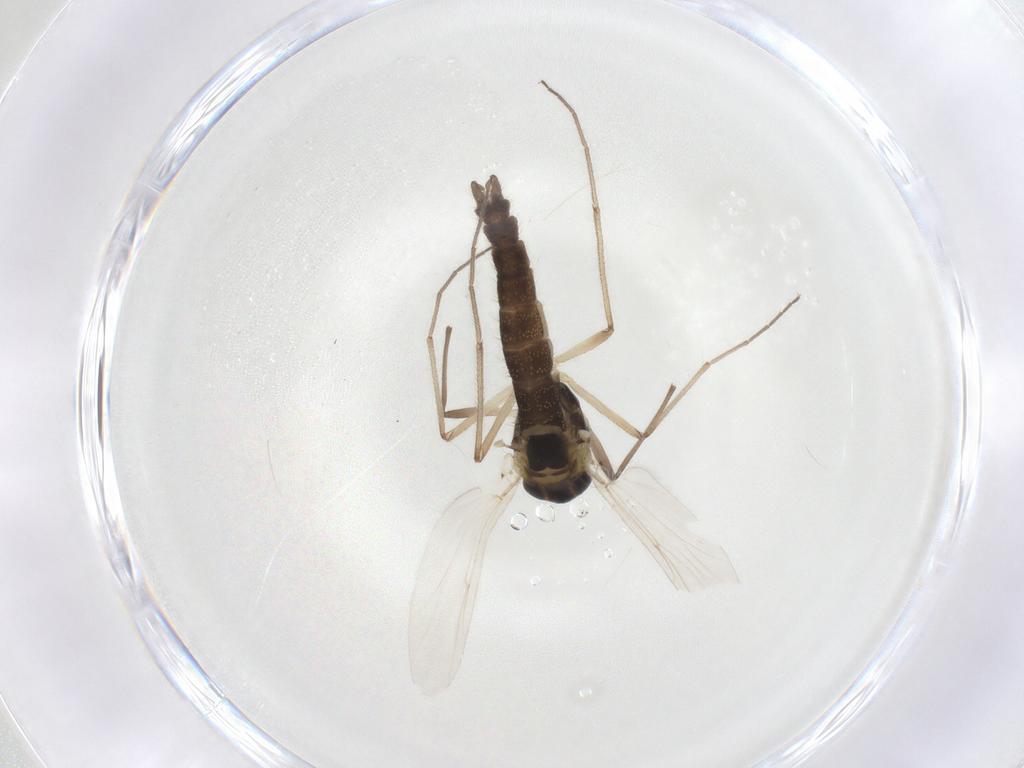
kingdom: Animalia
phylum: Arthropoda
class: Insecta
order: Diptera
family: Chironomidae
